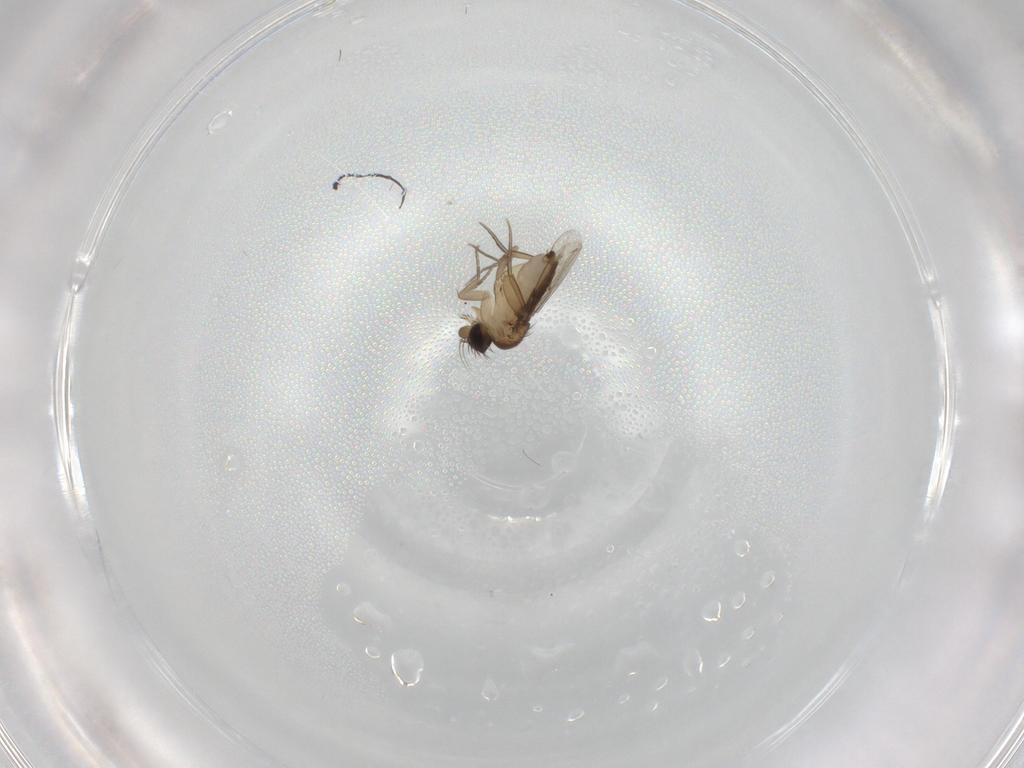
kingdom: Animalia
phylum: Arthropoda
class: Insecta
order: Diptera
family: Phoridae
